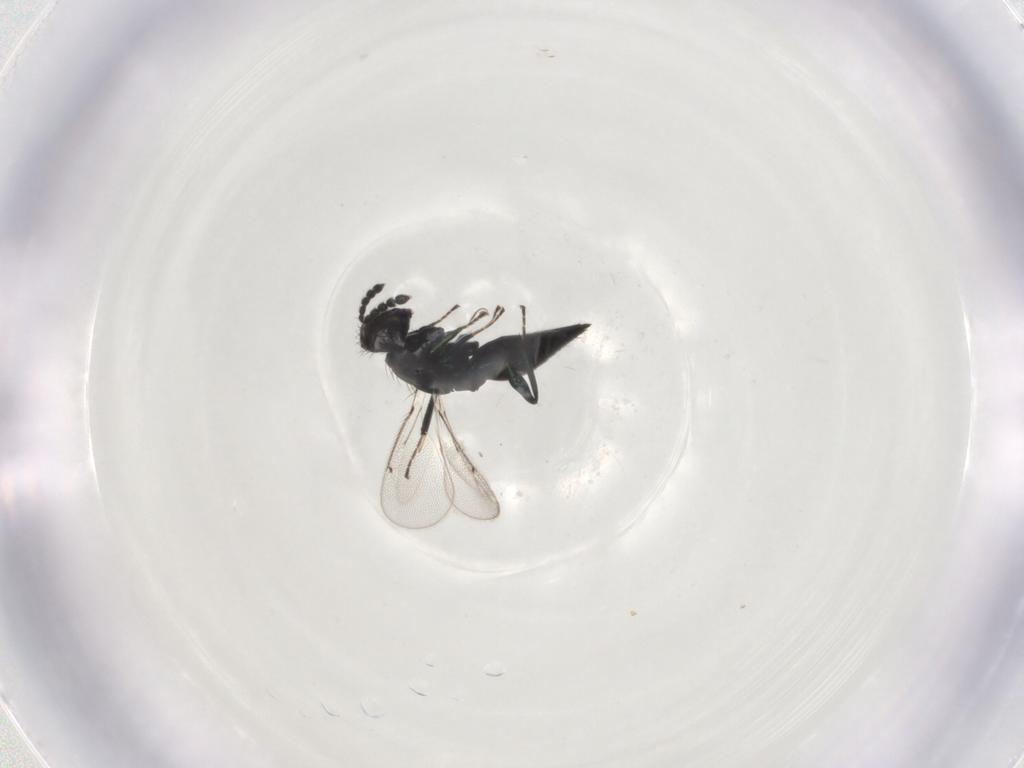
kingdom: Animalia
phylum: Arthropoda
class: Insecta
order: Hymenoptera
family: Eulophidae
